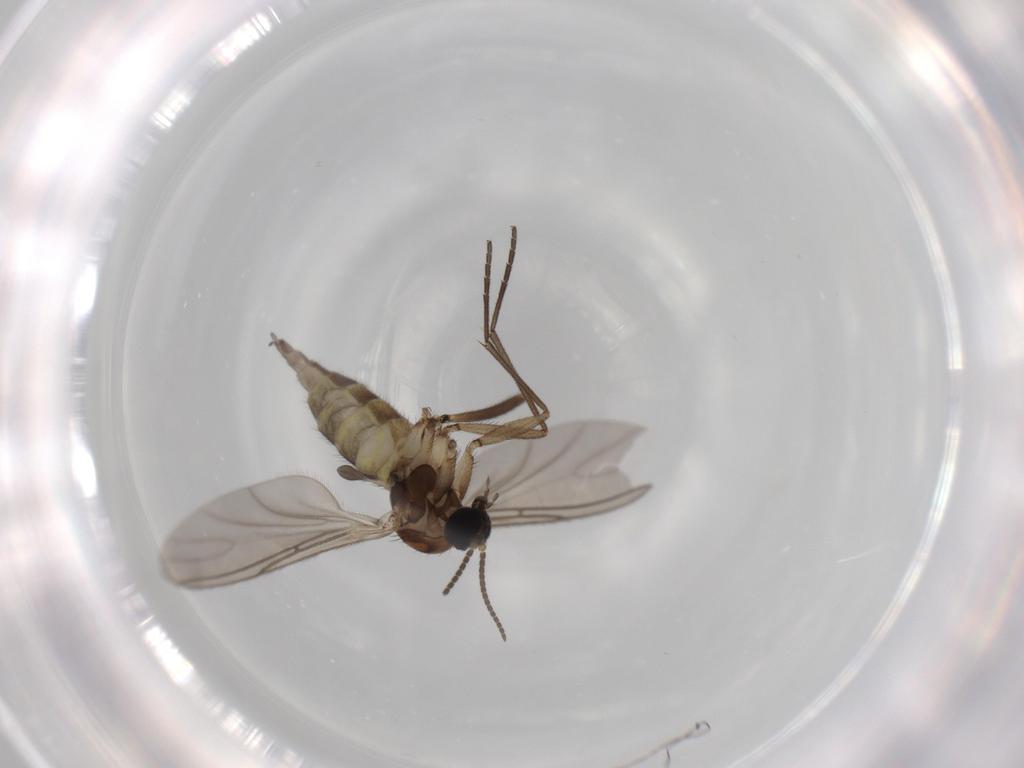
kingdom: Animalia
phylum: Arthropoda
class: Insecta
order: Diptera
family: Sciaridae
